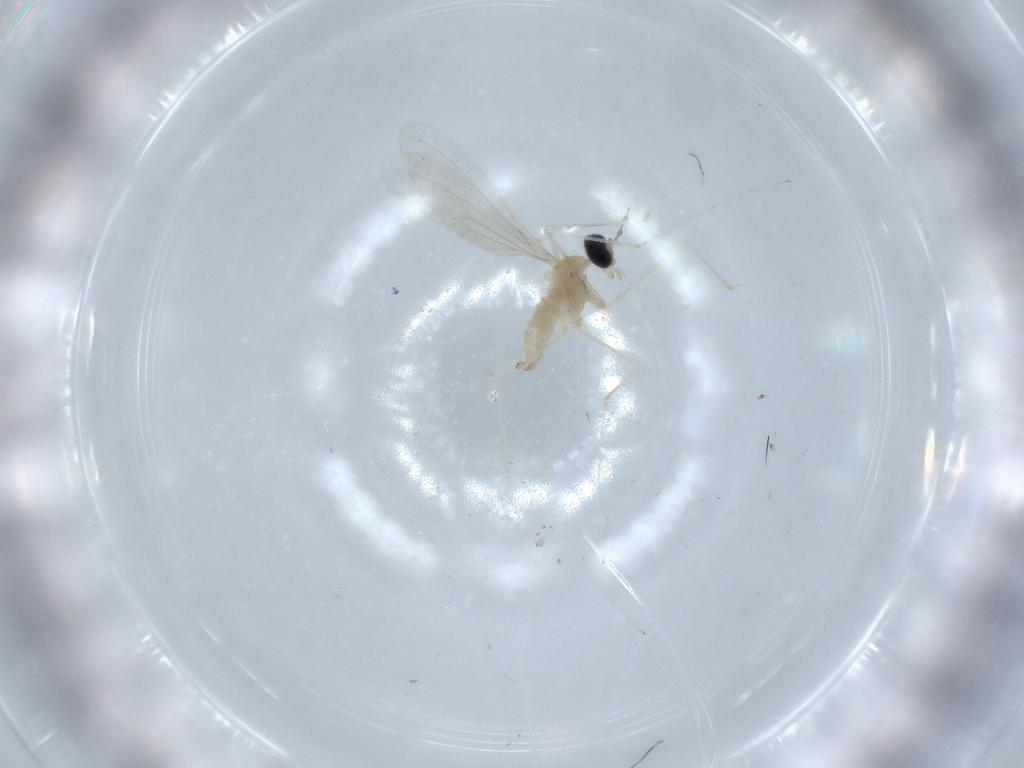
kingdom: Animalia
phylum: Arthropoda
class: Insecta
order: Diptera
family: Cecidomyiidae
